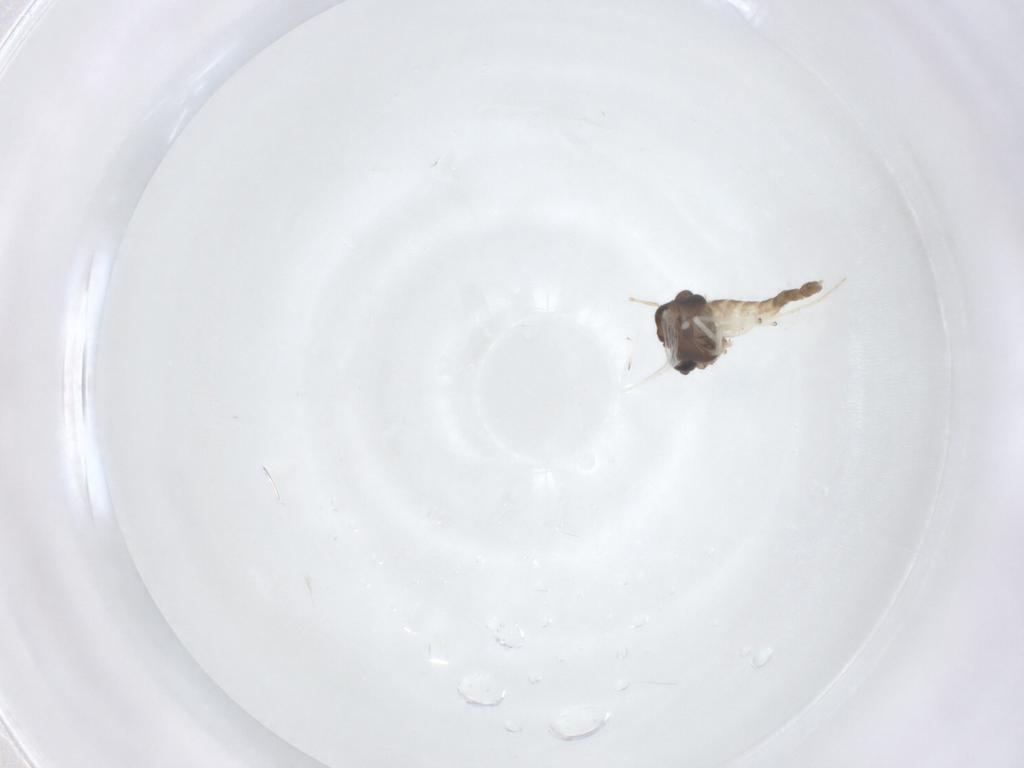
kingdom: Animalia
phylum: Arthropoda
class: Insecta
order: Diptera
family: Chironomidae
